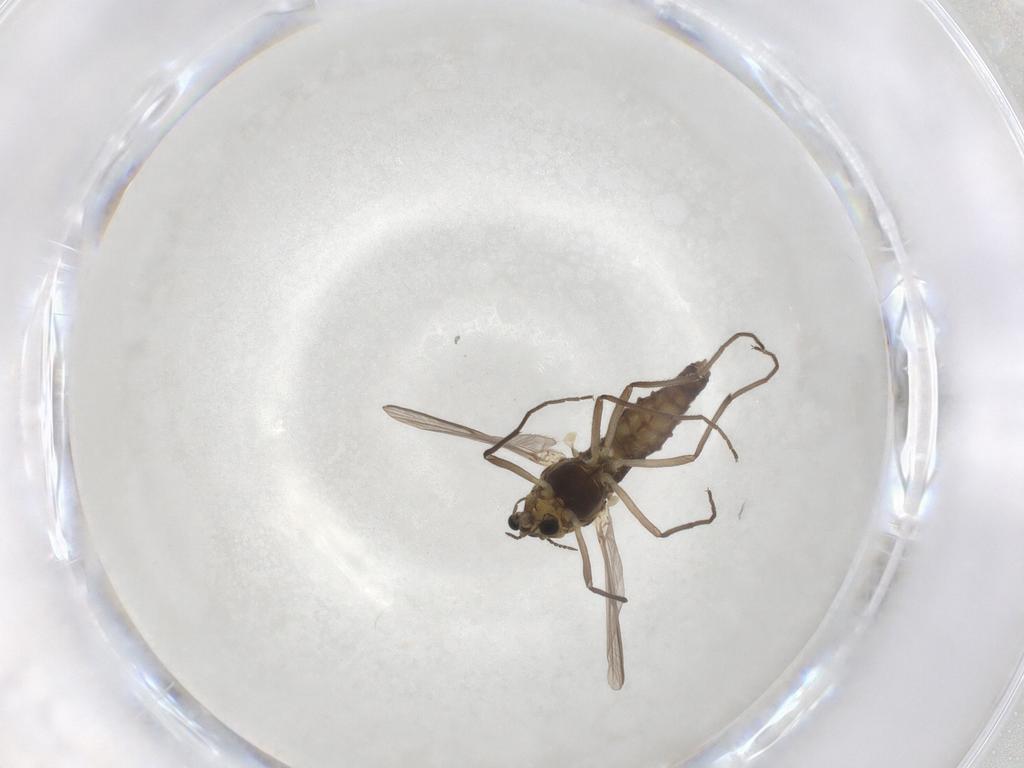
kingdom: Animalia
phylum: Arthropoda
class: Insecta
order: Diptera
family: Chironomidae
